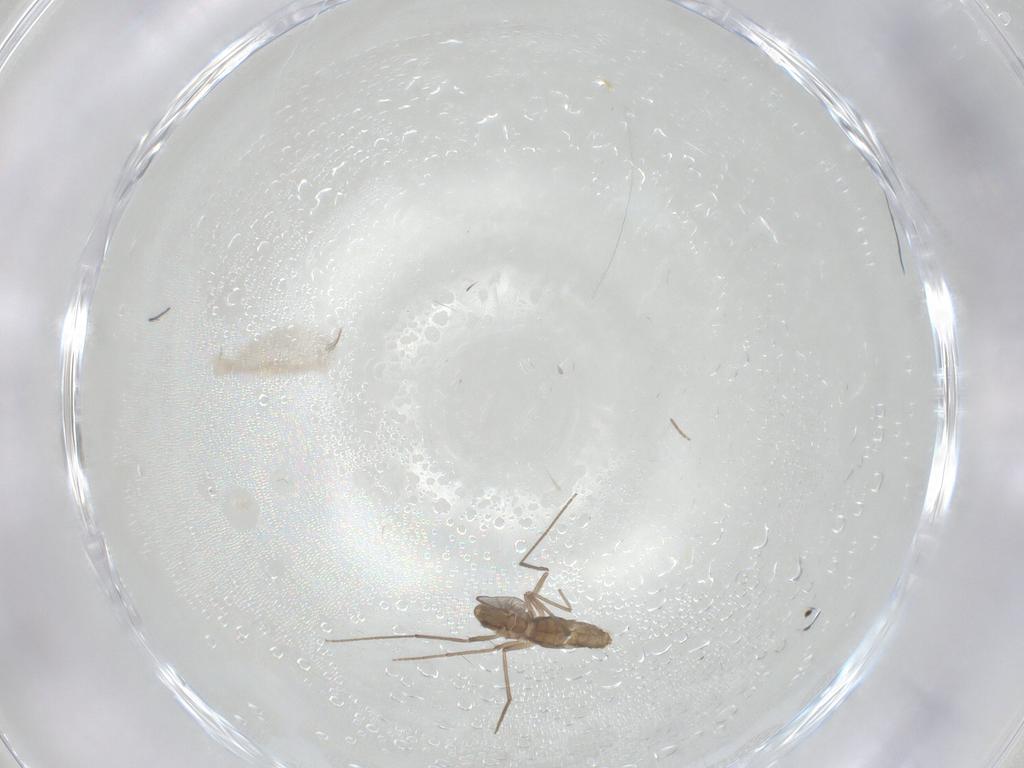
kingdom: Animalia
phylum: Arthropoda
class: Insecta
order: Diptera
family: Chironomidae
